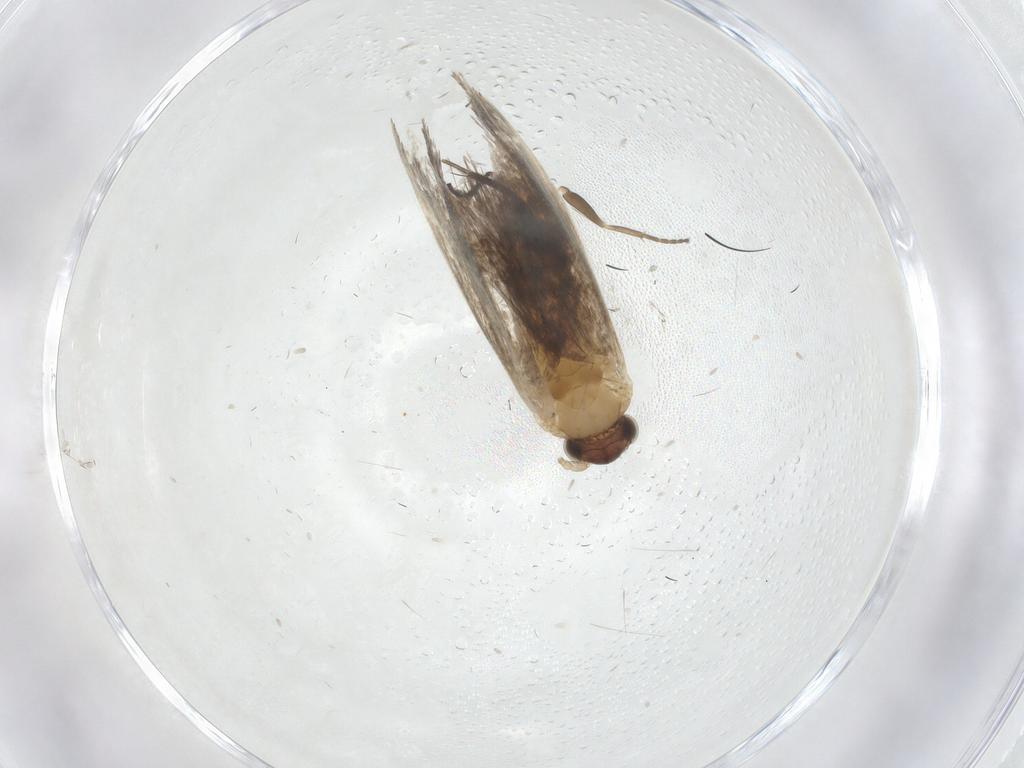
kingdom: Animalia
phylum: Arthropoda
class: Insecta
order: Lepidoptera
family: Dryadaulidae
